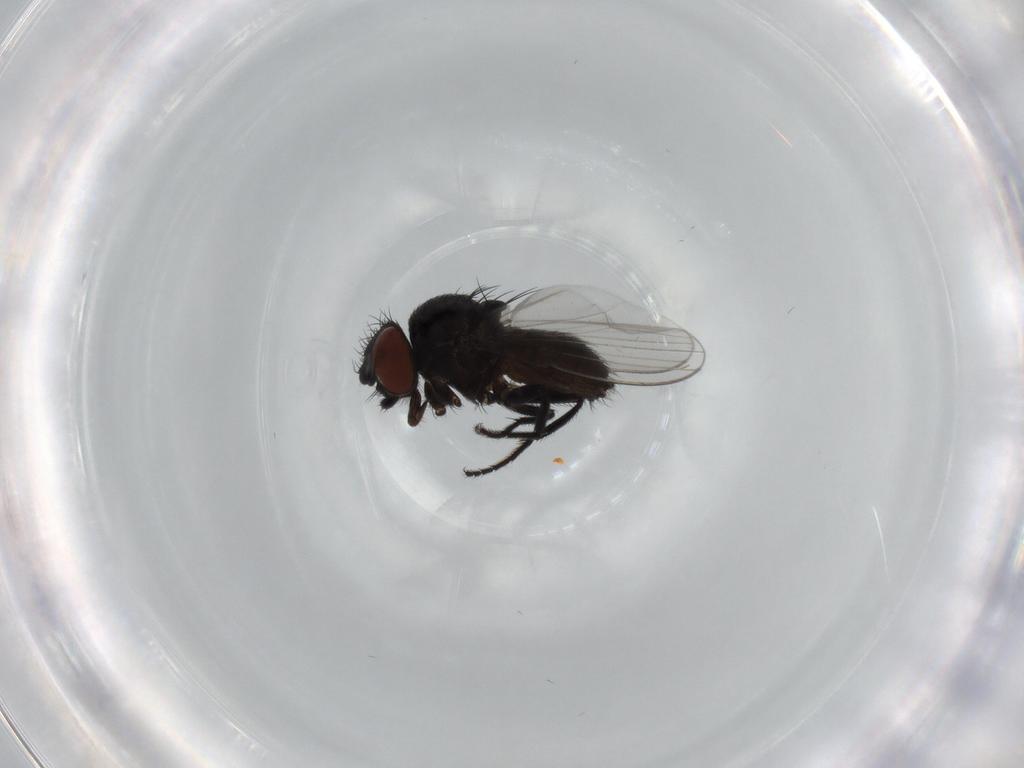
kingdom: Animalia
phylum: Arthropoda
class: Insecta
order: Diptera
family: Milichiidae
